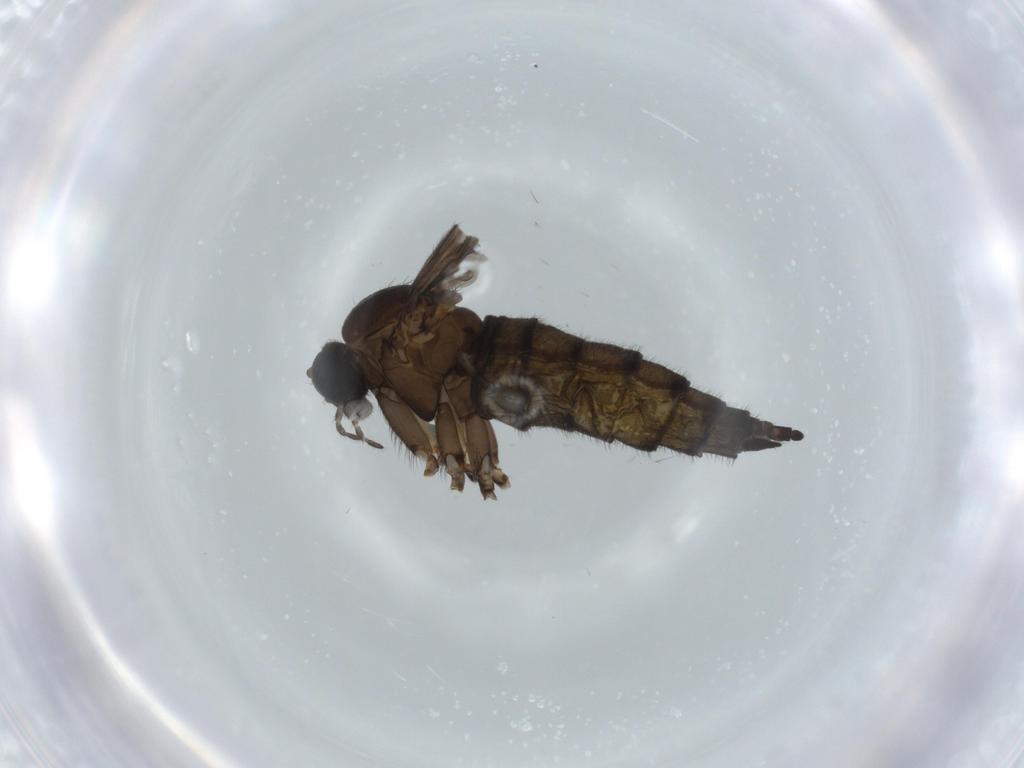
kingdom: Animalia
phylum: Arthropoda
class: Insecta
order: Diptera
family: Sciaridae
